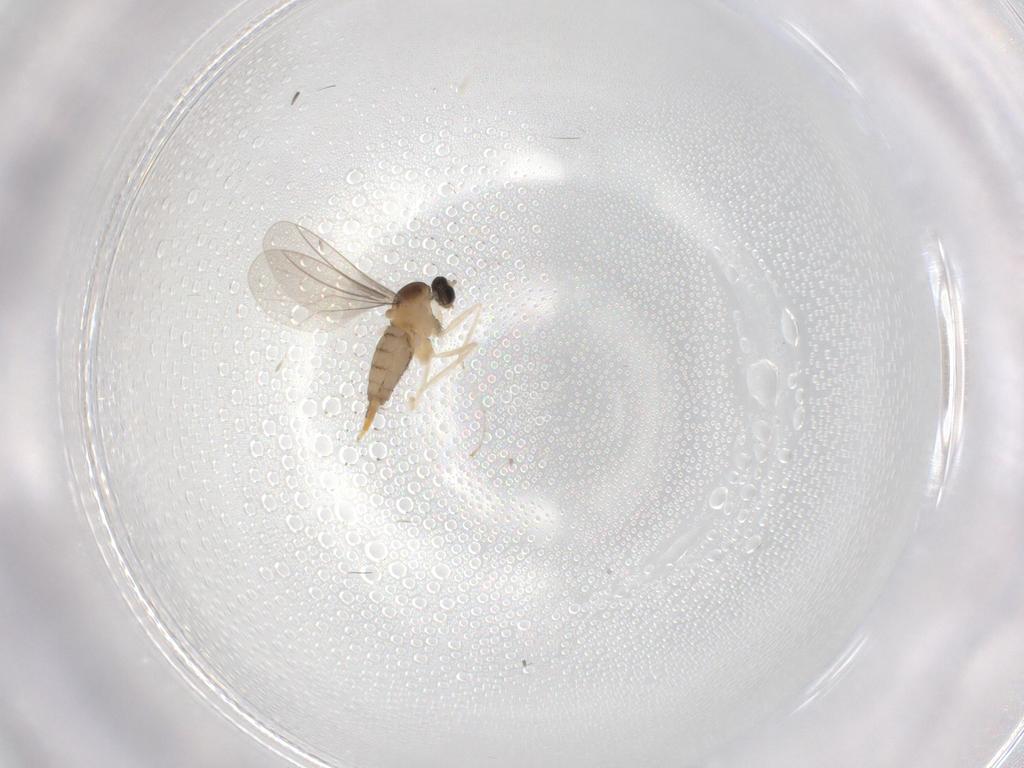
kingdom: Animalia
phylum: Arthropoda
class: Insecta
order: Diptera
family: Cecidomyiidae
